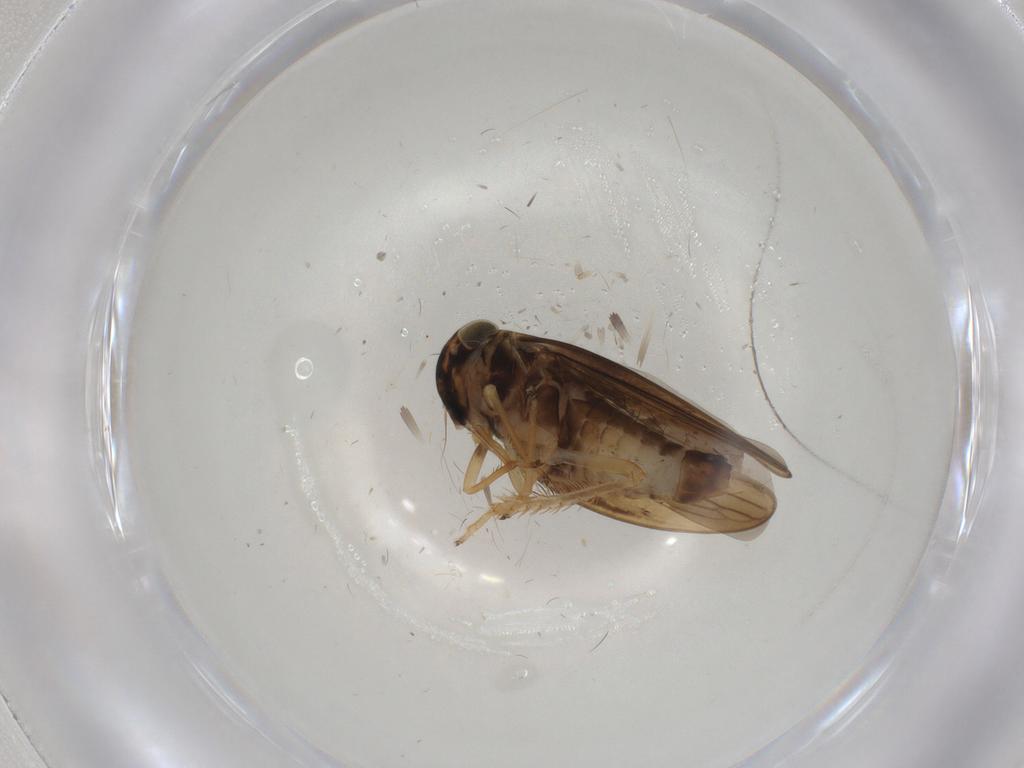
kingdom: Animalia
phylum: Arthropoda
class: Insecta
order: Hemiptera
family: Cicadellidae
